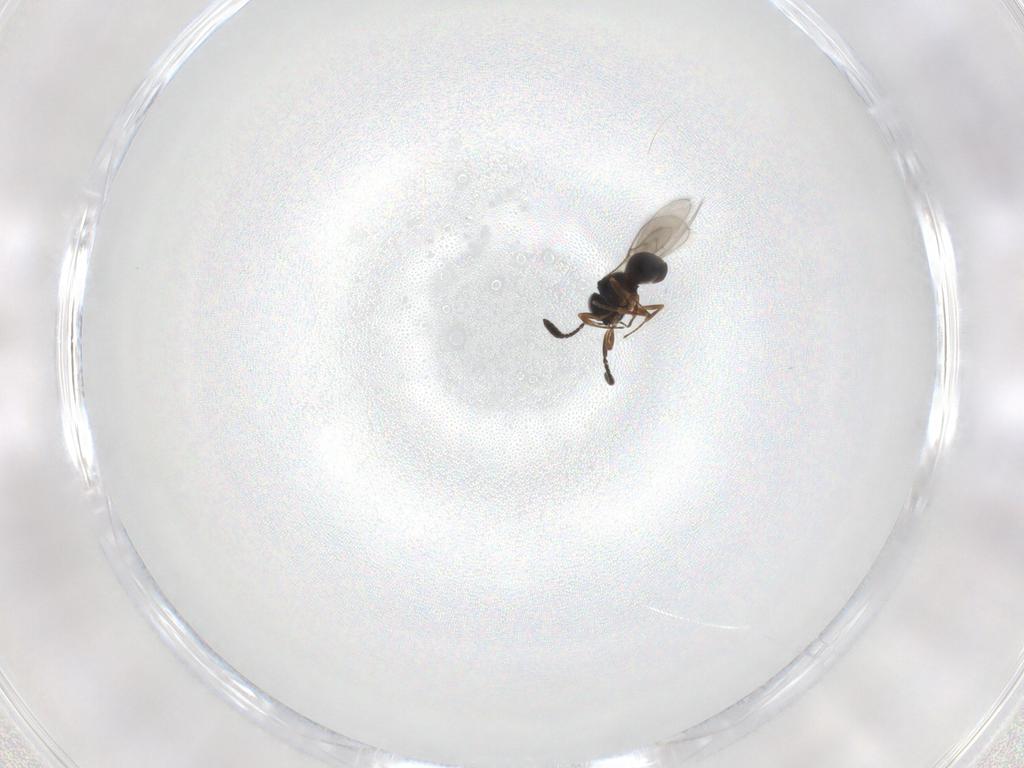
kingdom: Animalia
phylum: Arthropoda
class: Insecta
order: Hymenoptera
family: Scelionidae
